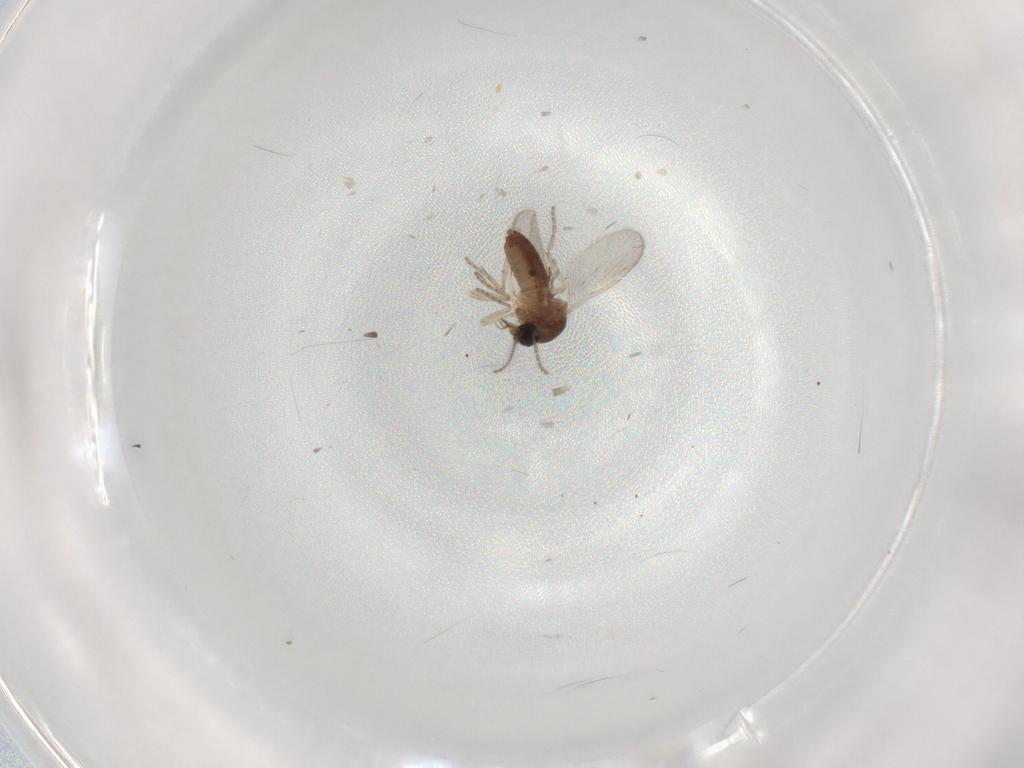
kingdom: Animalia
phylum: Arthropoda
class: Insecta
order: Diptera
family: Ceratopogonidae
